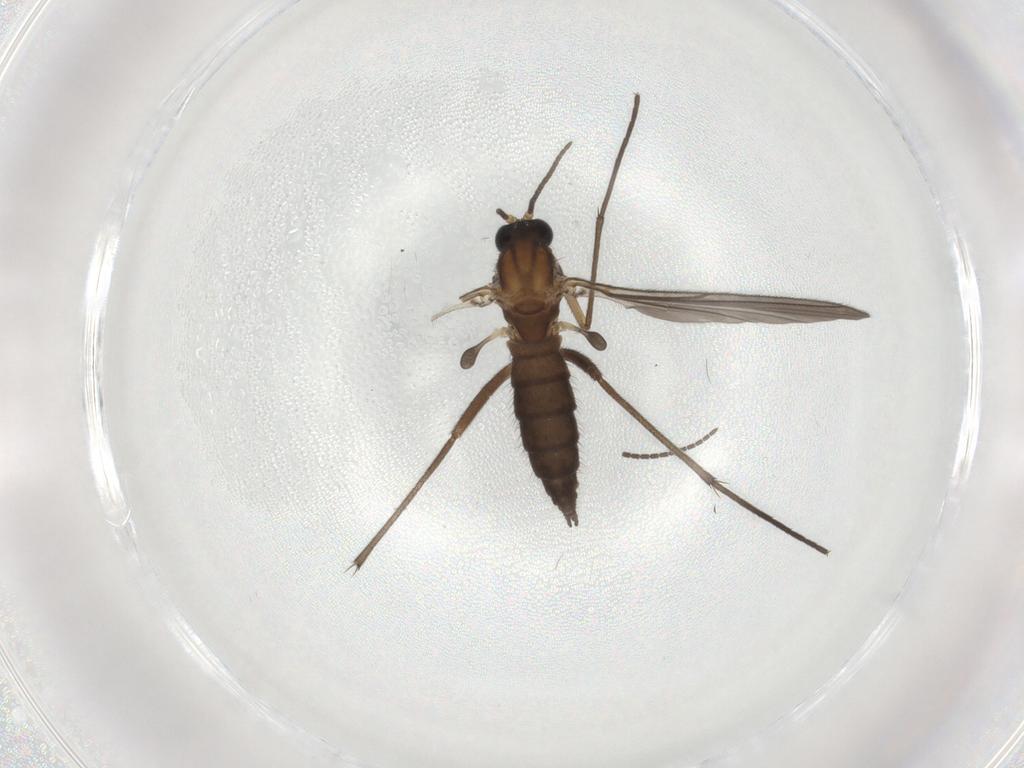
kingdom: Animalia
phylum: Arthropoda
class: Insecta
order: Diptera
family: Sciaridae
